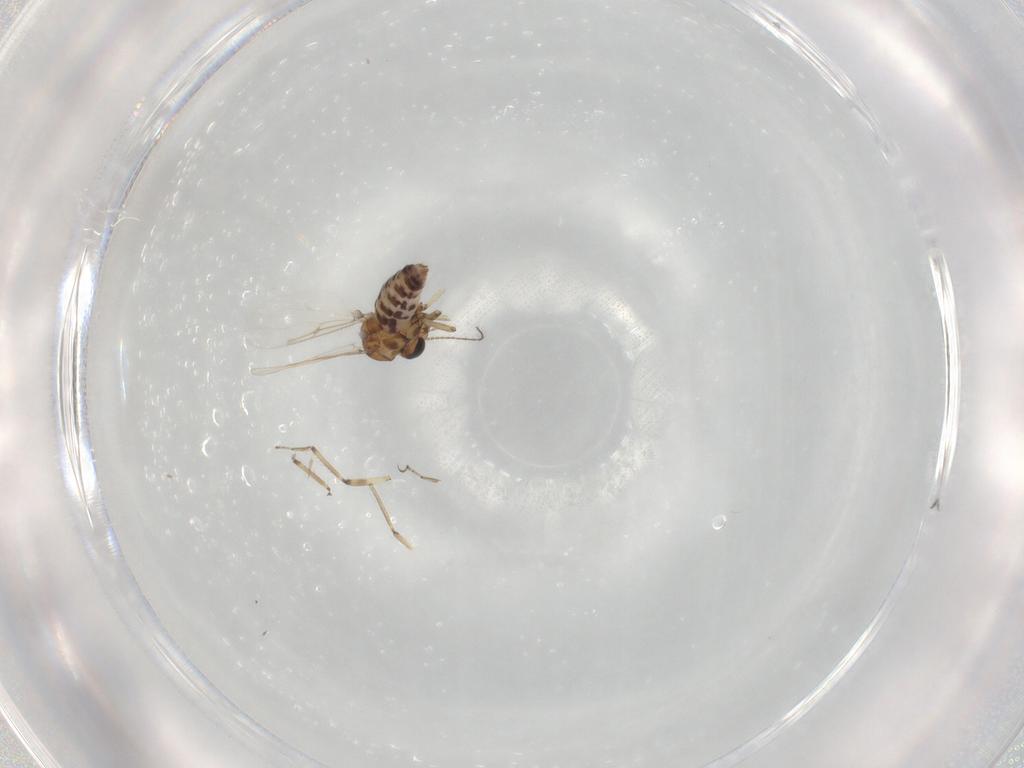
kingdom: Animalia
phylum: Arthropoda
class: Insecta
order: Diptera
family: Ceratopogonidae
